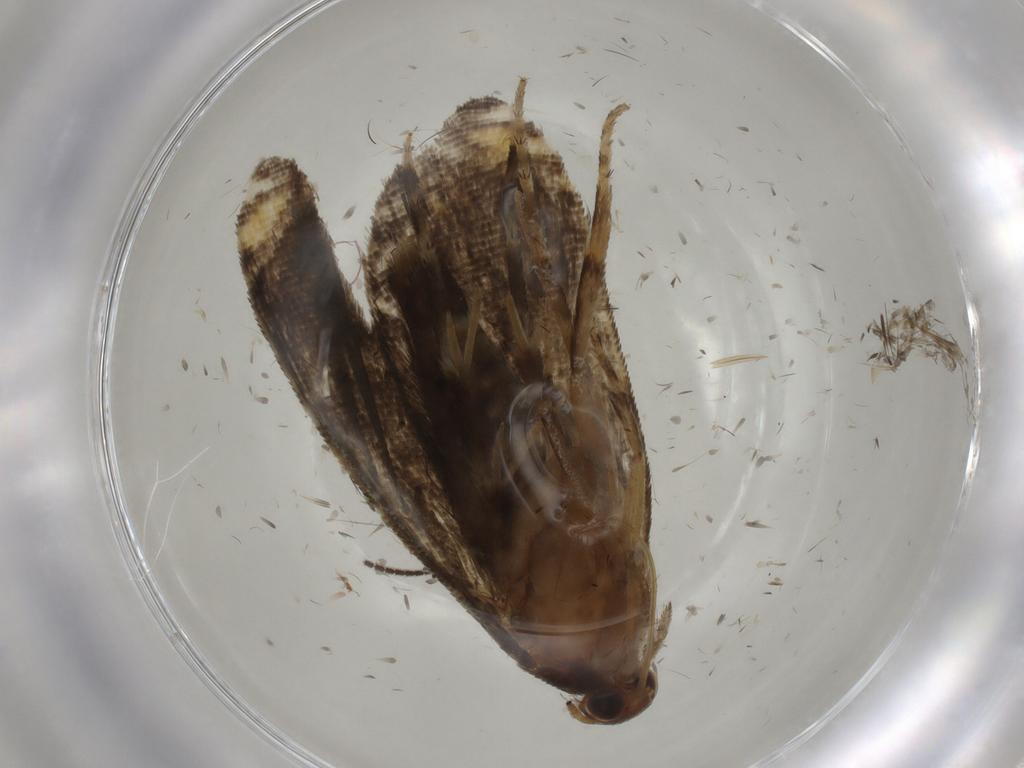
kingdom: Animalia
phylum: Arthropoda
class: Insecta
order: Lepidoptera
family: Glyphipterigidae
